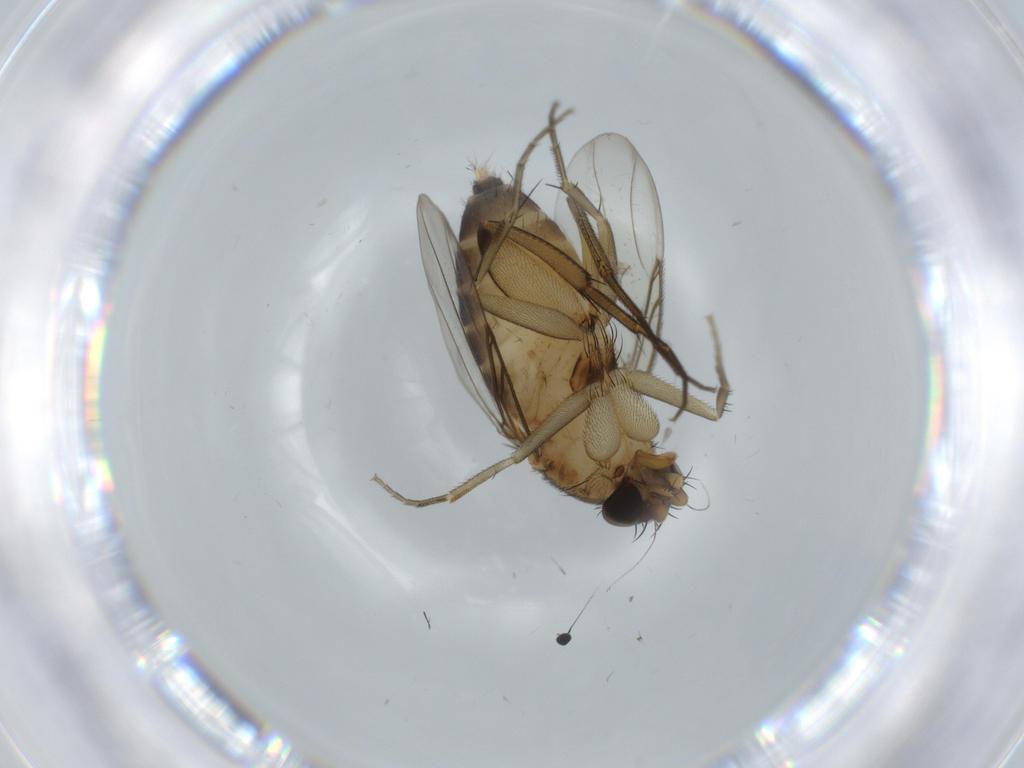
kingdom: Animalia
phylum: Arthropoda
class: Insecta
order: Diptera
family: Phoridae
